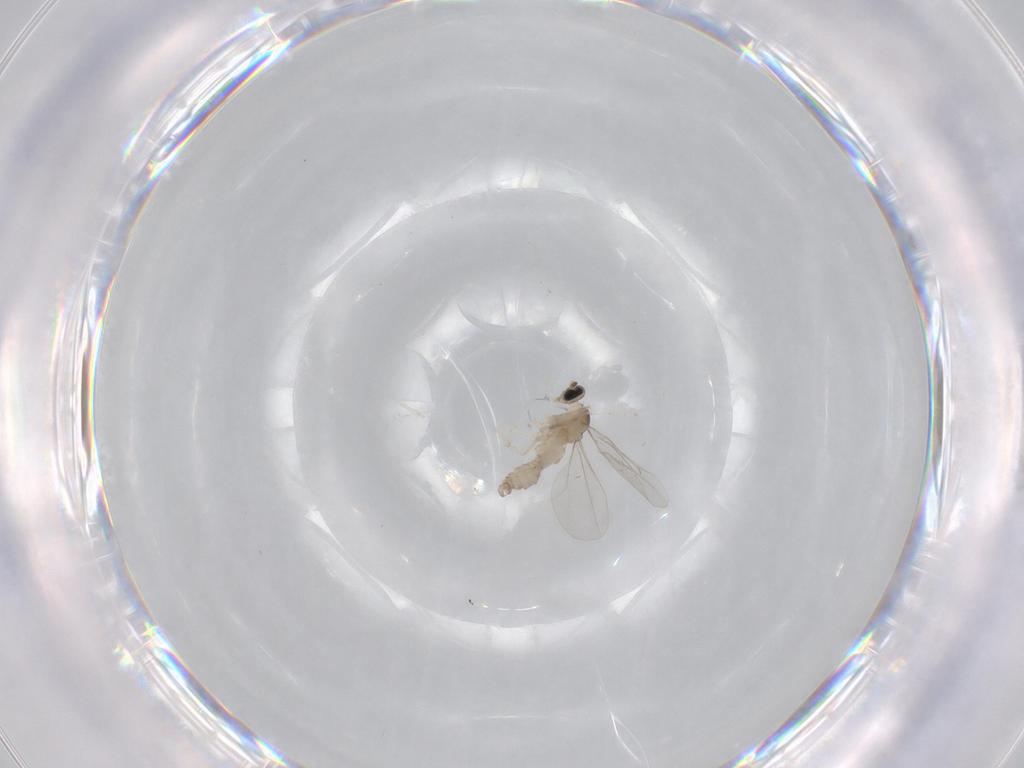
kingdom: Animalia
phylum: Arthropoda
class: Insecta
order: Diptera
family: Cecidomyiidae
